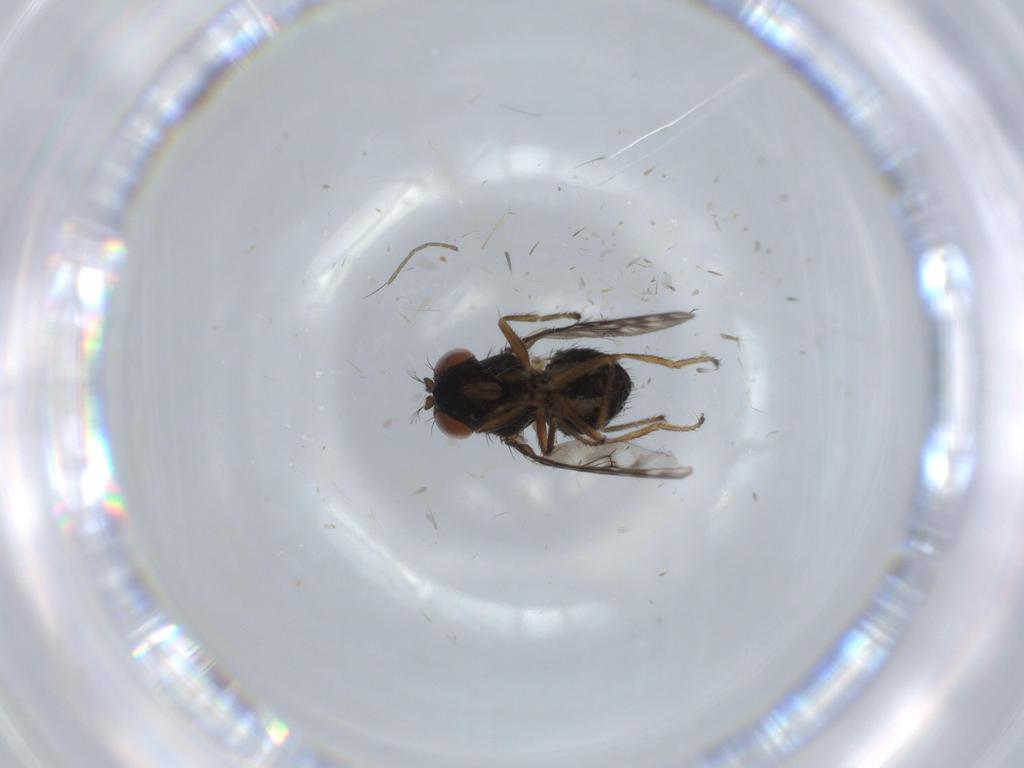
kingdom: Animalia
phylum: Arthropoda
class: Insecta
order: Diptera
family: Ephydridae
